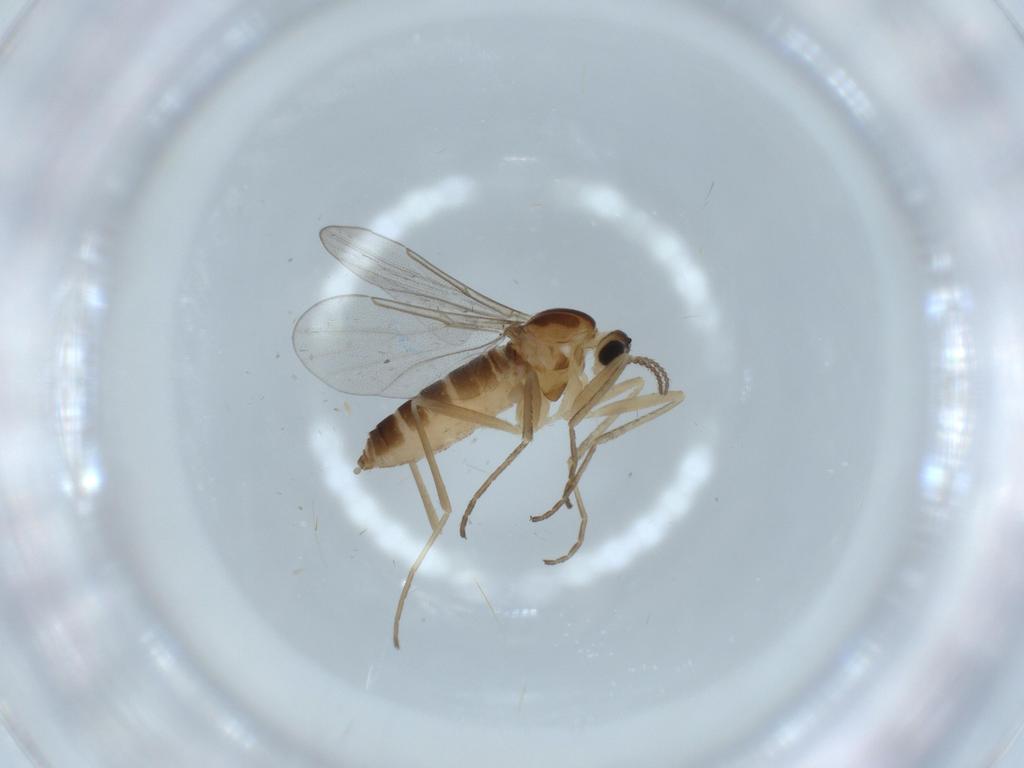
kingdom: Animalia
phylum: Arthropoda
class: Insecta
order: Diptera
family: Cecidomyiidae
